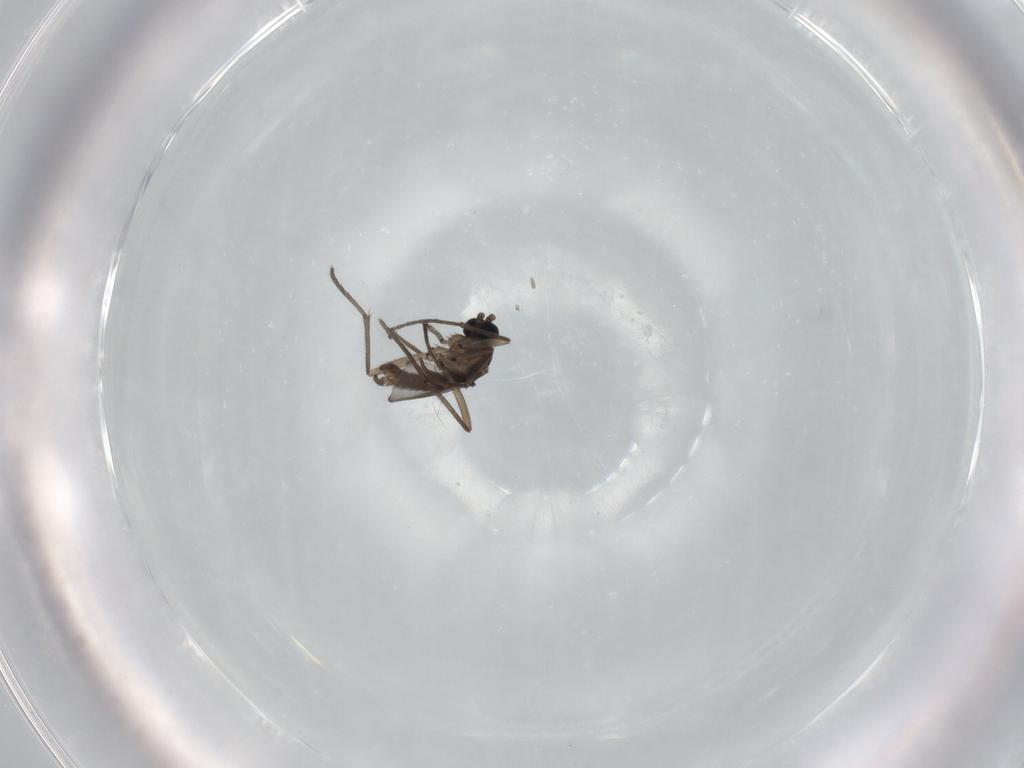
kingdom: Animalia
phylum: Arthropoda
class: Insecta
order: Diptera
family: Sciaridae
